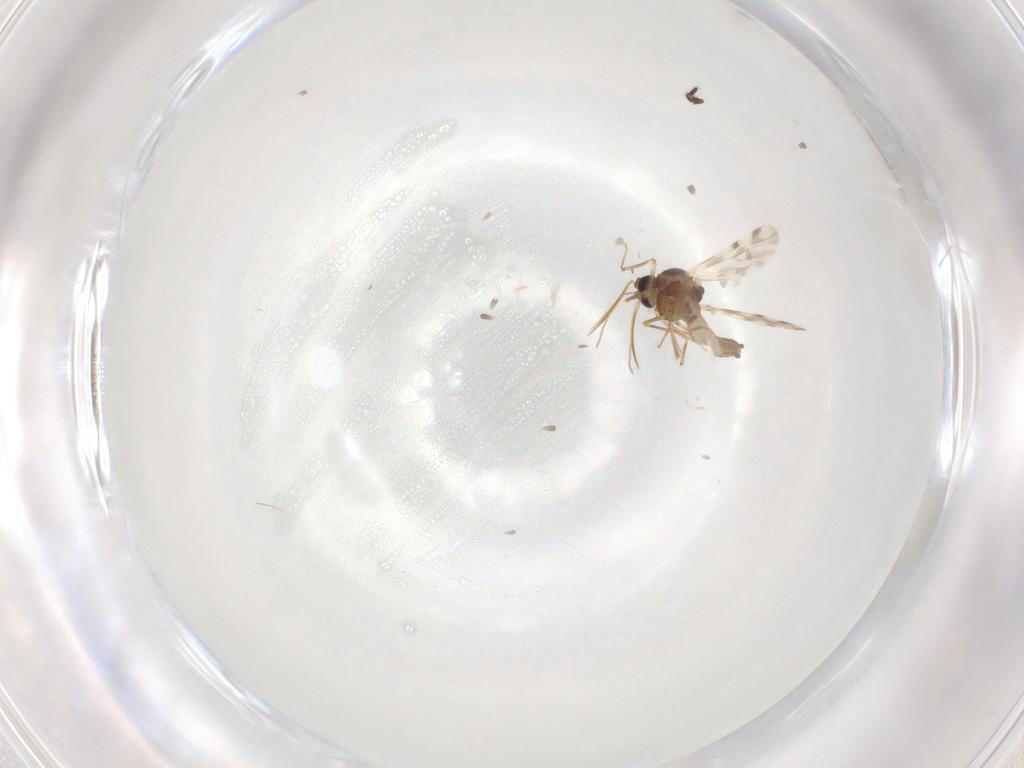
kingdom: Animalia
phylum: Arthropoda
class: Insecta
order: Diptera
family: Limoniidae
